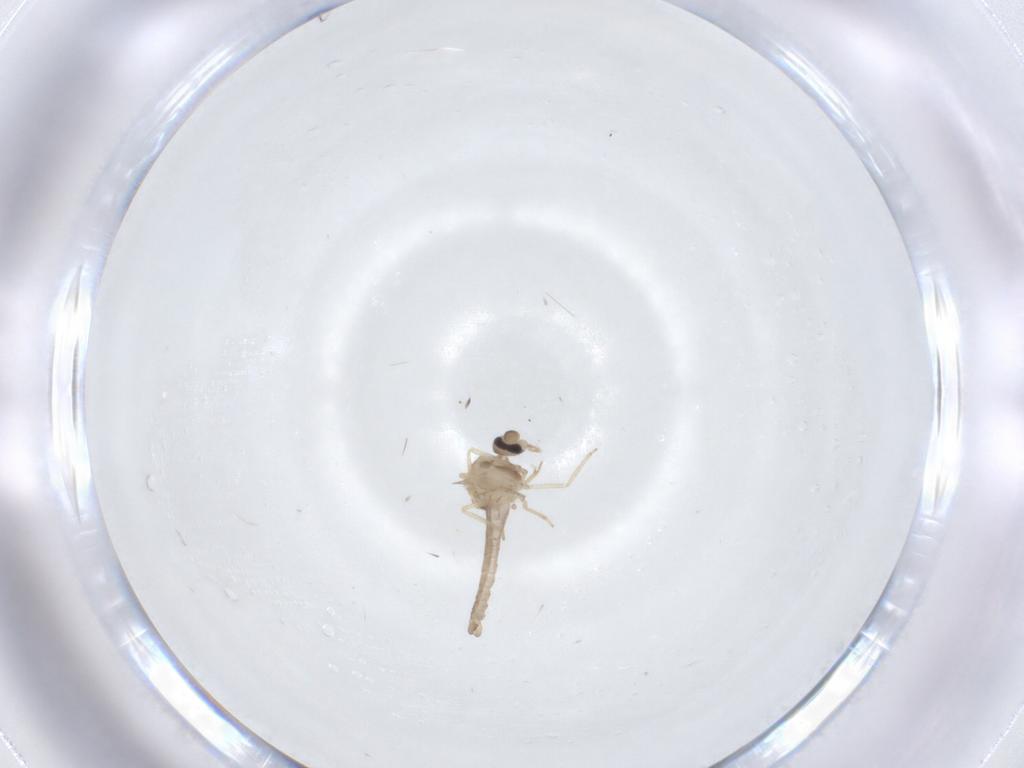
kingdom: Animalia
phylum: Arthropoda
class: Insecta
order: Diptera
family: Ceratopogonidae
